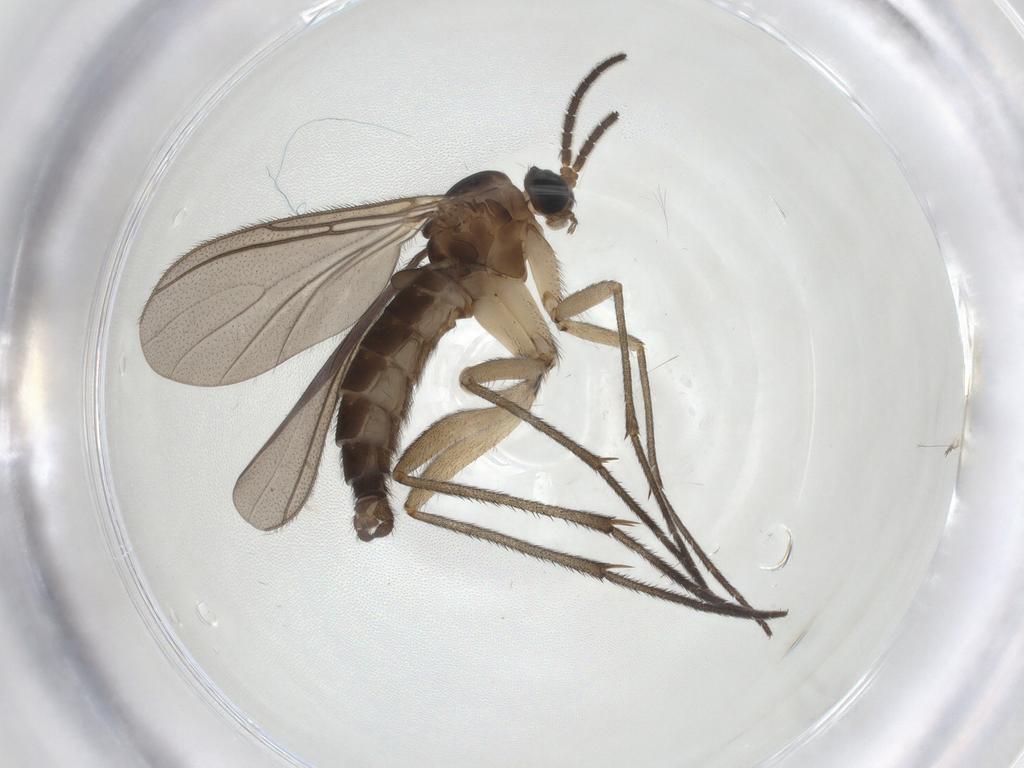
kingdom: Animalia
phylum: Arthropoda
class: Insecta
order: Diptera
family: Sciaridae
